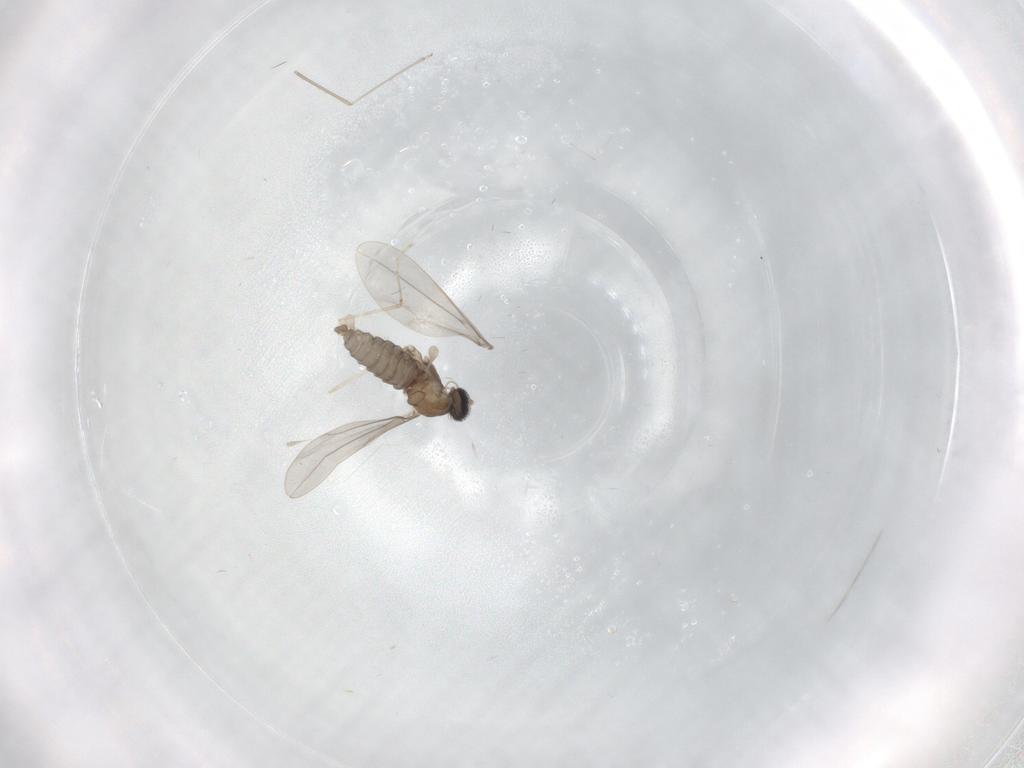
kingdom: Animalia
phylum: Arthropoda
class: Insecta
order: Diptera
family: Cecidomyiidae
